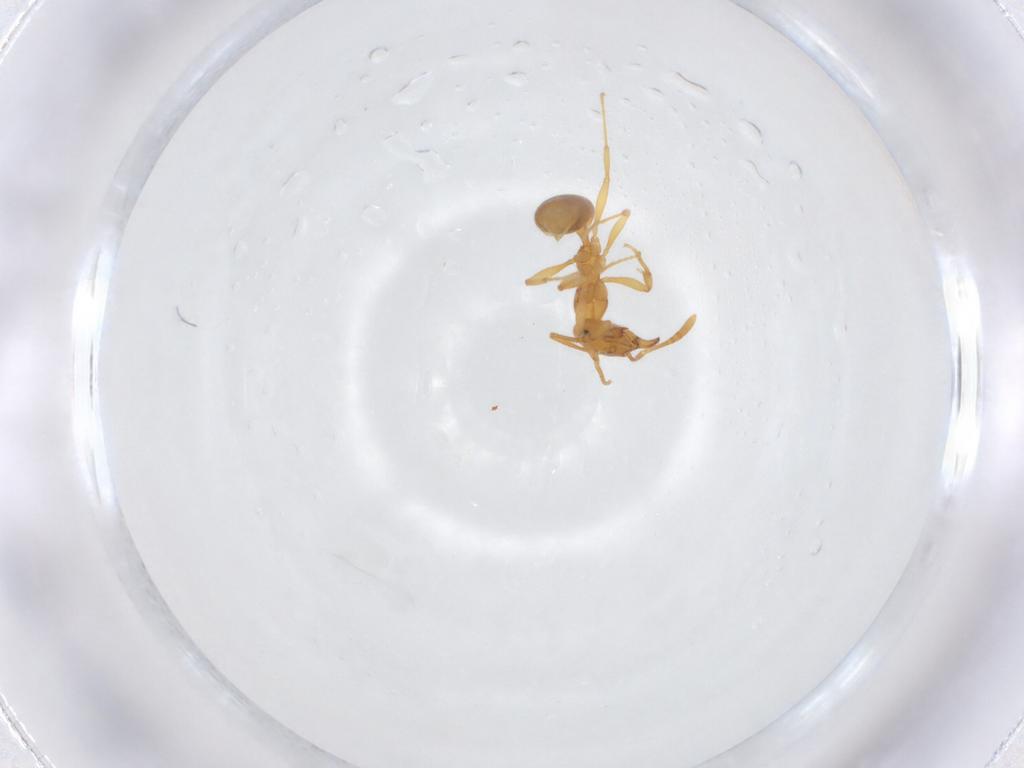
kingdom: Animalia
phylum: Arthropoda
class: Insecta
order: Hymenoptera
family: Formicidae
